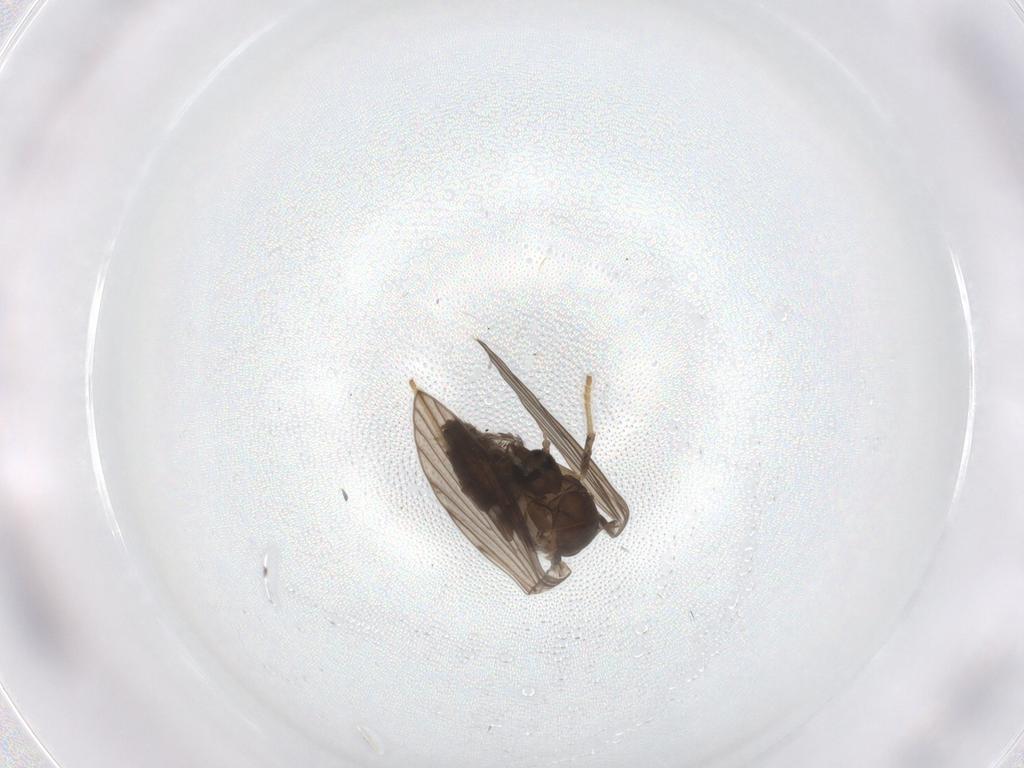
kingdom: Animalia
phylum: Arthropoda
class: Insecta
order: Diptera
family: Psychodidae
